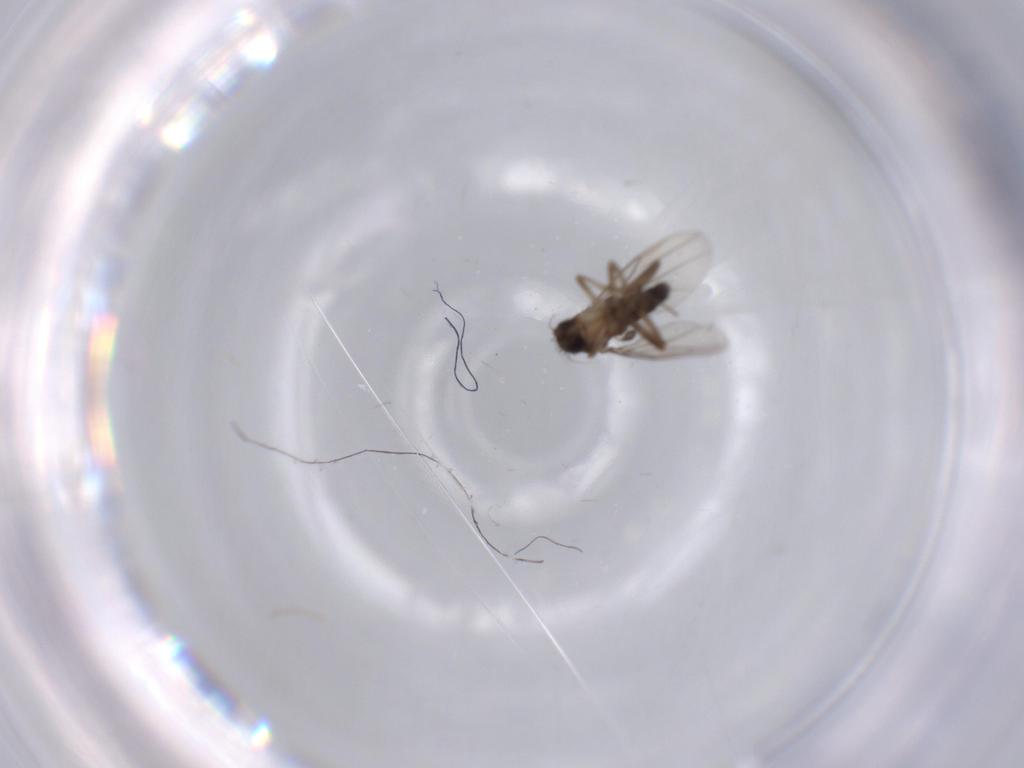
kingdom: Animalia
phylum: Arthropoda
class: Insecta
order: Diptera
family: Phoridae
